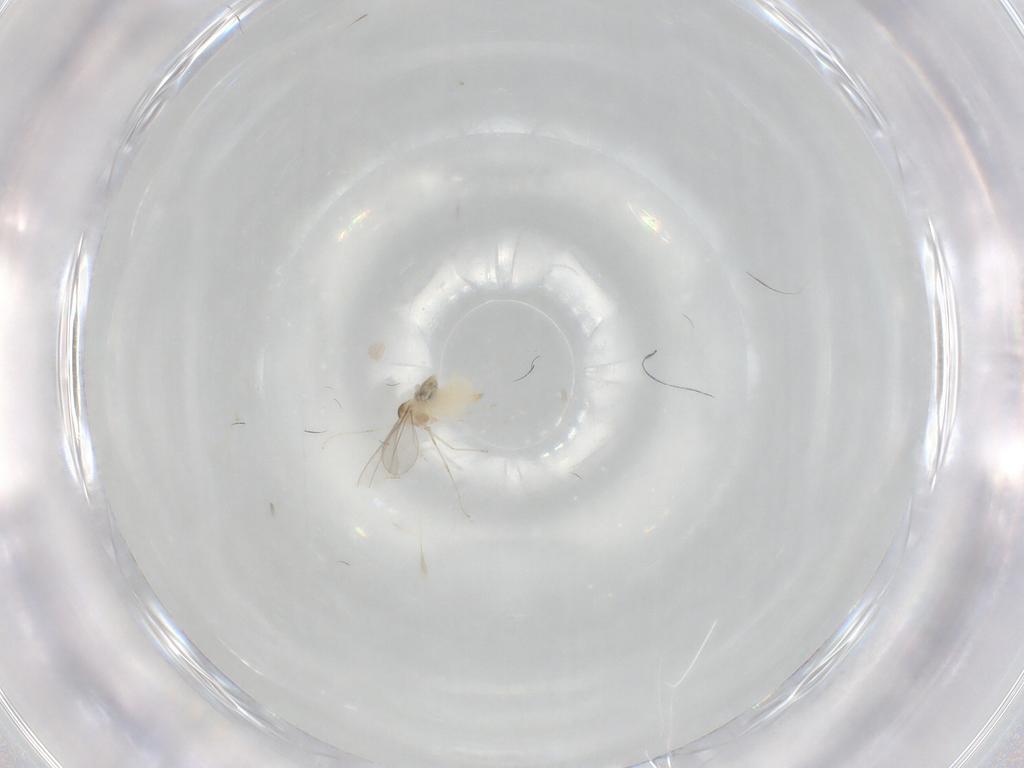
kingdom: Animalia
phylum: Arthropoda
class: Insecta
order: Diptera
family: Cecidomyiidae
